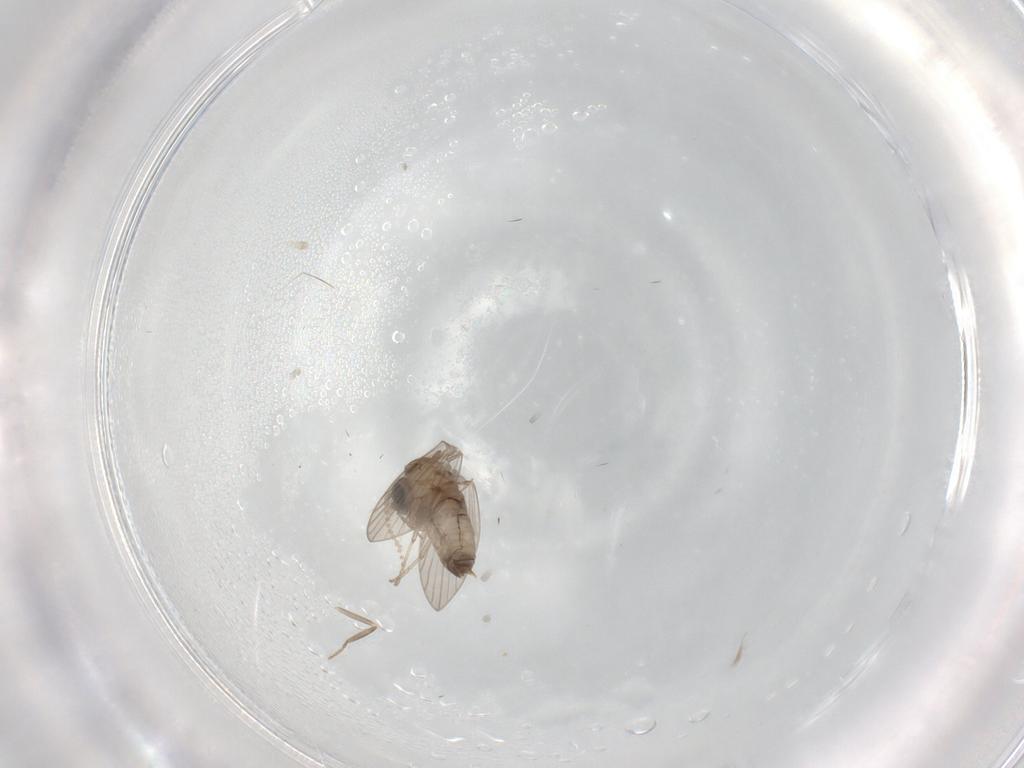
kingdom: Animalia
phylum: Arthropoda
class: Insecta
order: Diptera
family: Psychodidae
